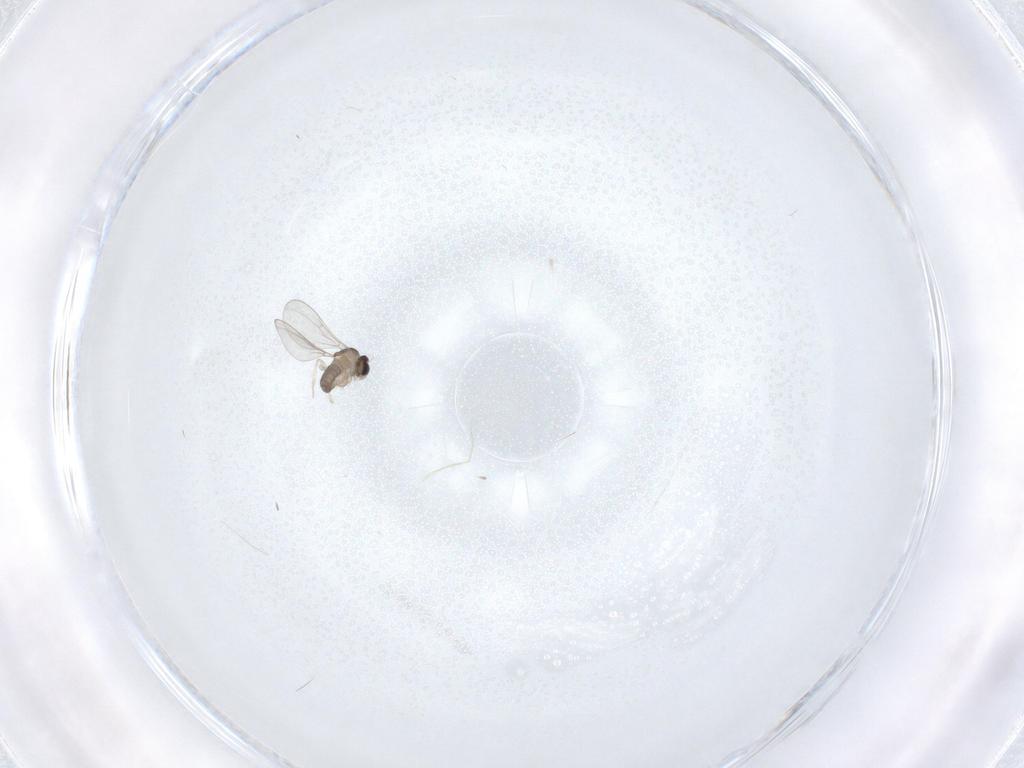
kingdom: Animalia
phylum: Arthropoda
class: Insecta
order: Diptera
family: Cecidomyiidae
